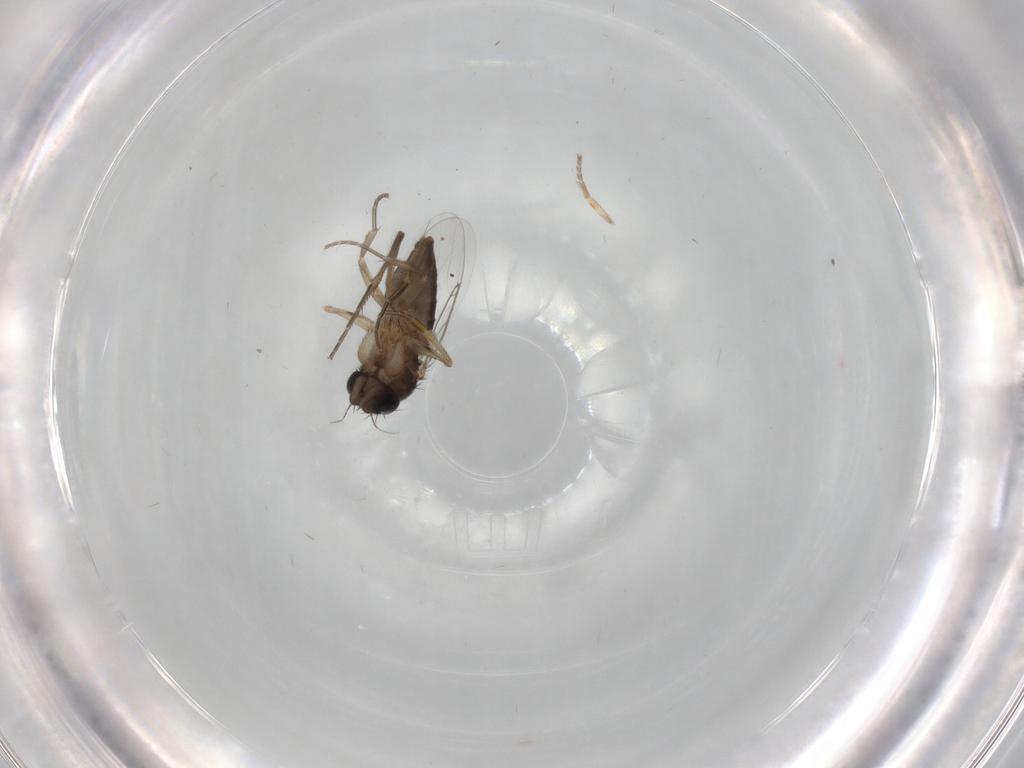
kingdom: Animalia
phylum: Arthropoda
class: Insecta
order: Diptera
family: Phoridae
